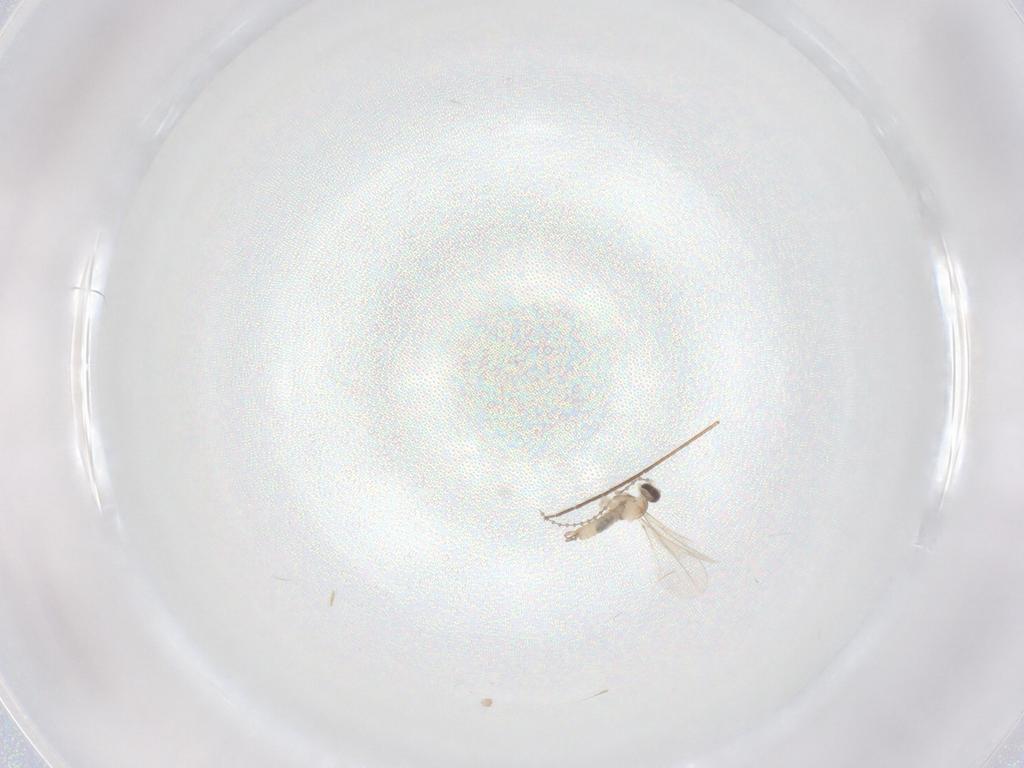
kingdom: Animalia
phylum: Arthropoda
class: Insecta
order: Diptera
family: Cecidomyiidae
